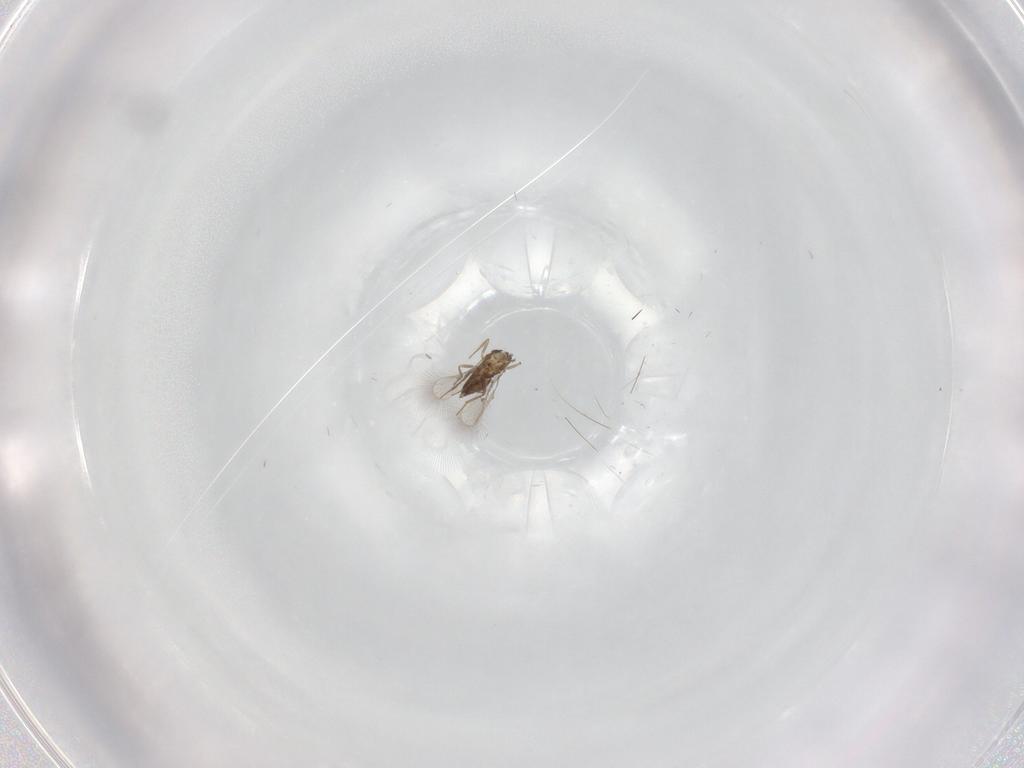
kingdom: Animalia
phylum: Arthropoda
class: Insecta
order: Hymenoptera
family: Trichogrammatidae
